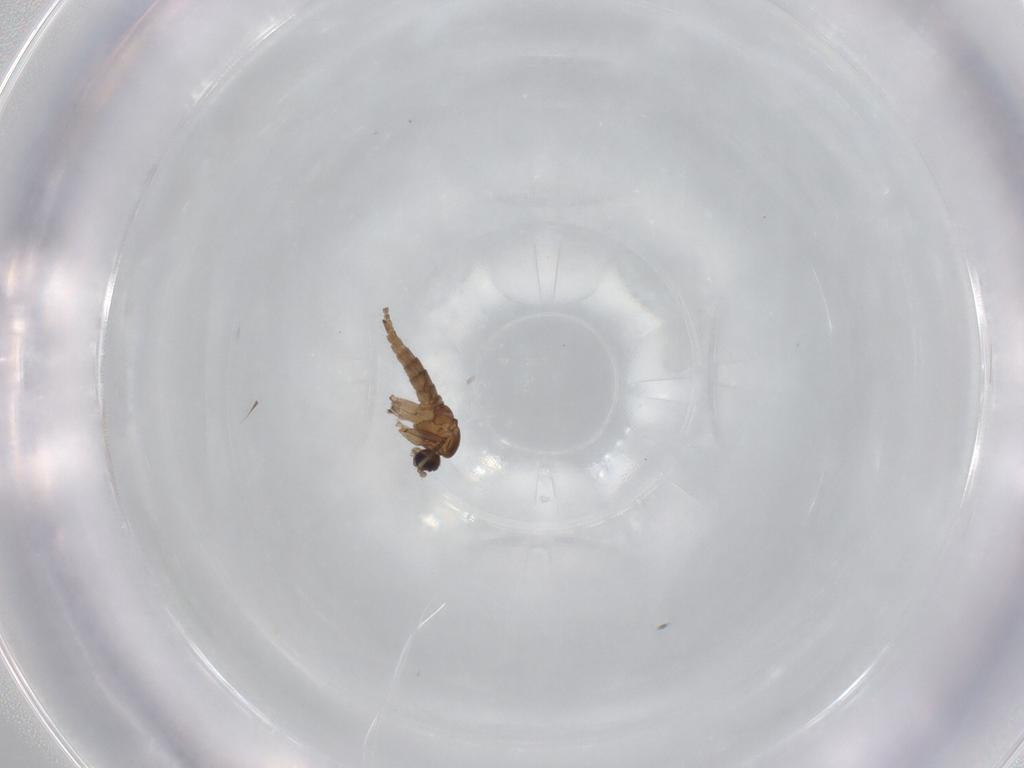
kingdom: Animalia
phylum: Arthropoda
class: Insecta
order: Diptera
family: Sciaridae
